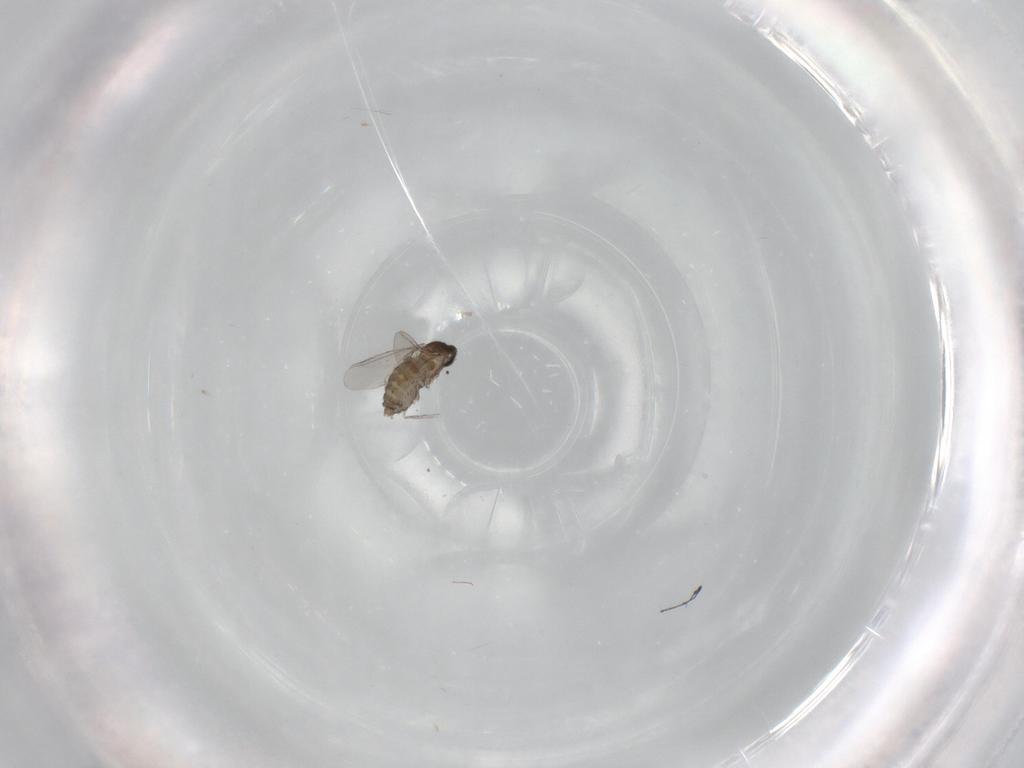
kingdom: Animalia
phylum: Arthropoda
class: Insecta
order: Diptera
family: Cecidomyiidae
